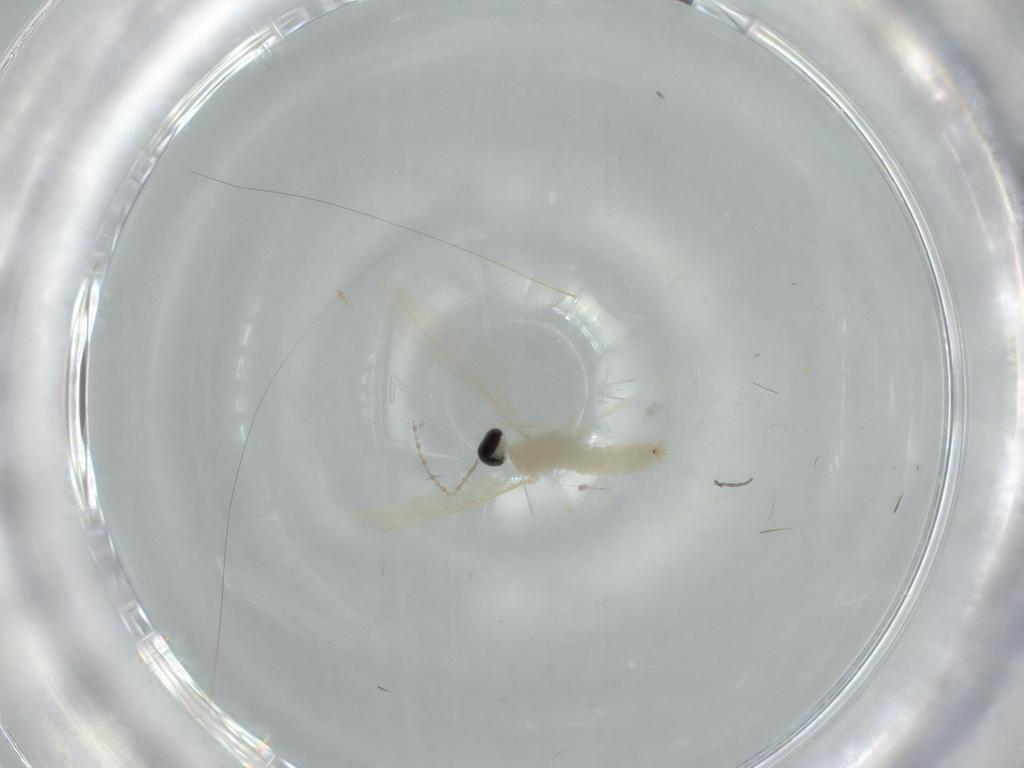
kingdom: Animalia
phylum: Arthropoda
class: Insecta
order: Diptera
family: Cecidomyiidae
